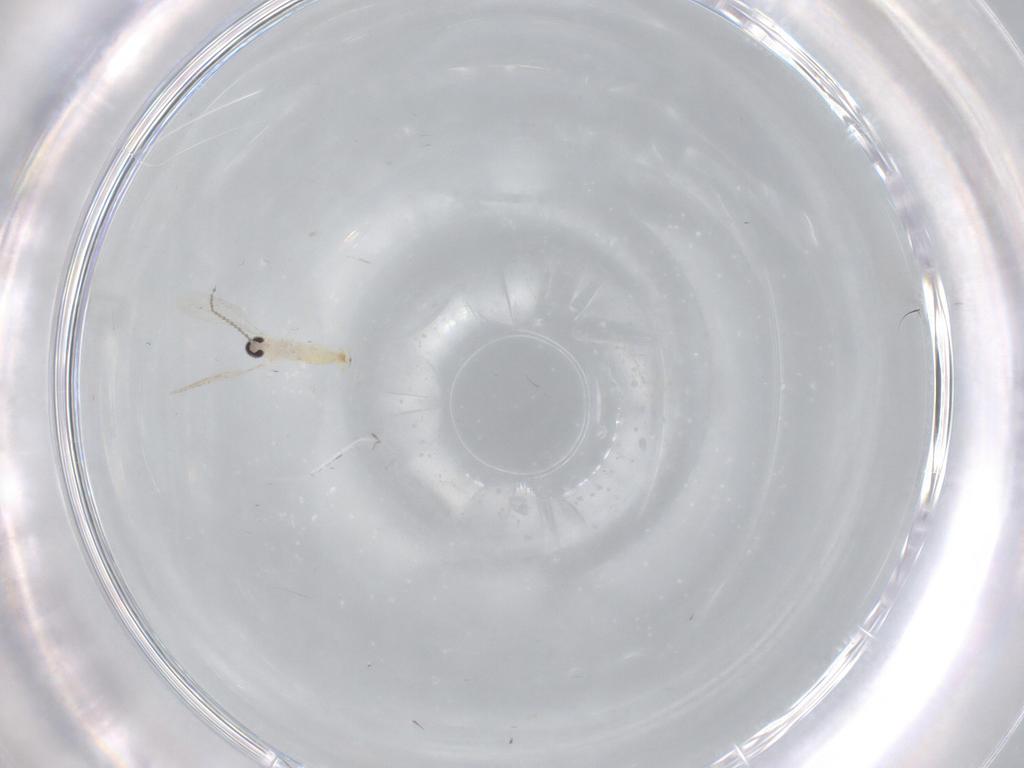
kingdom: Animalia
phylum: Arthropoda
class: Insecta
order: Diptera
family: Cecidomyiidae
